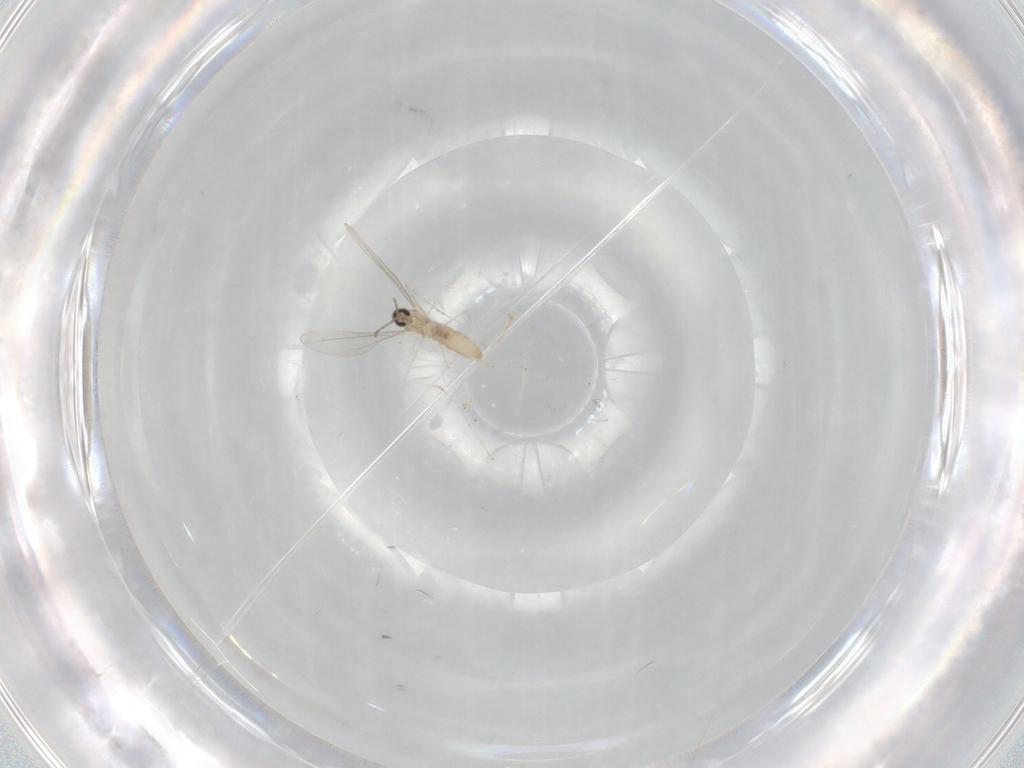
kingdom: Animalia
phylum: Arthropoda
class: Insecta
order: Diptera
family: Cecidomyiidae
